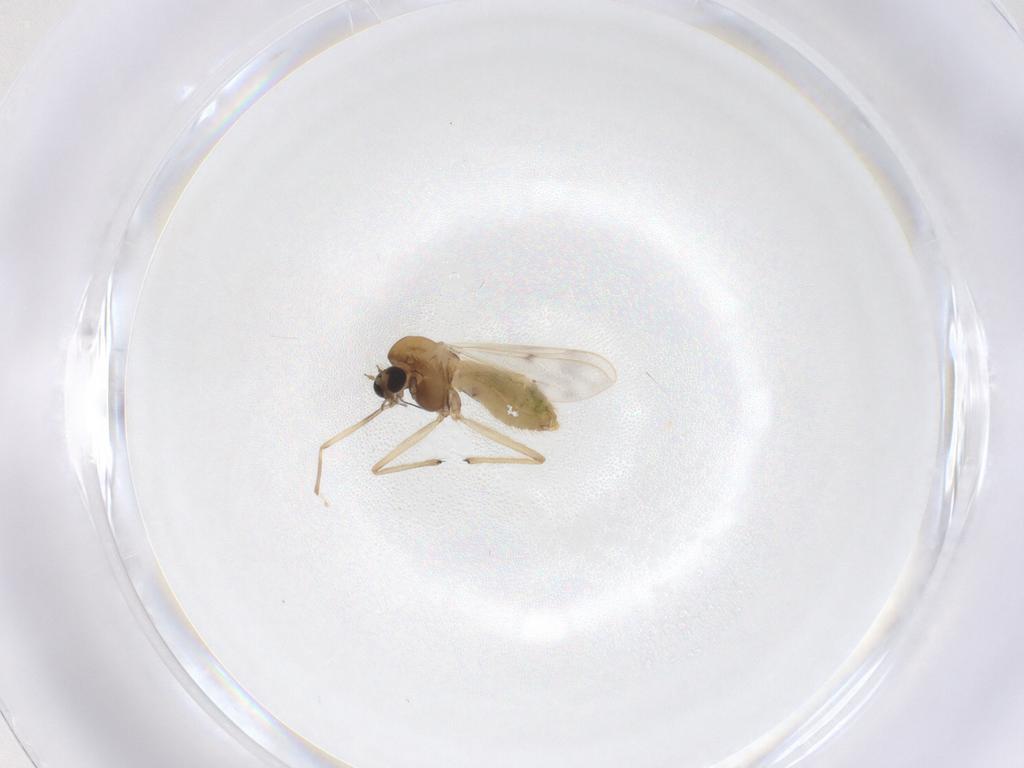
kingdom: Animalia
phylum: Arthropoda
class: Insecta
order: Diptera
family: Chironomidae
